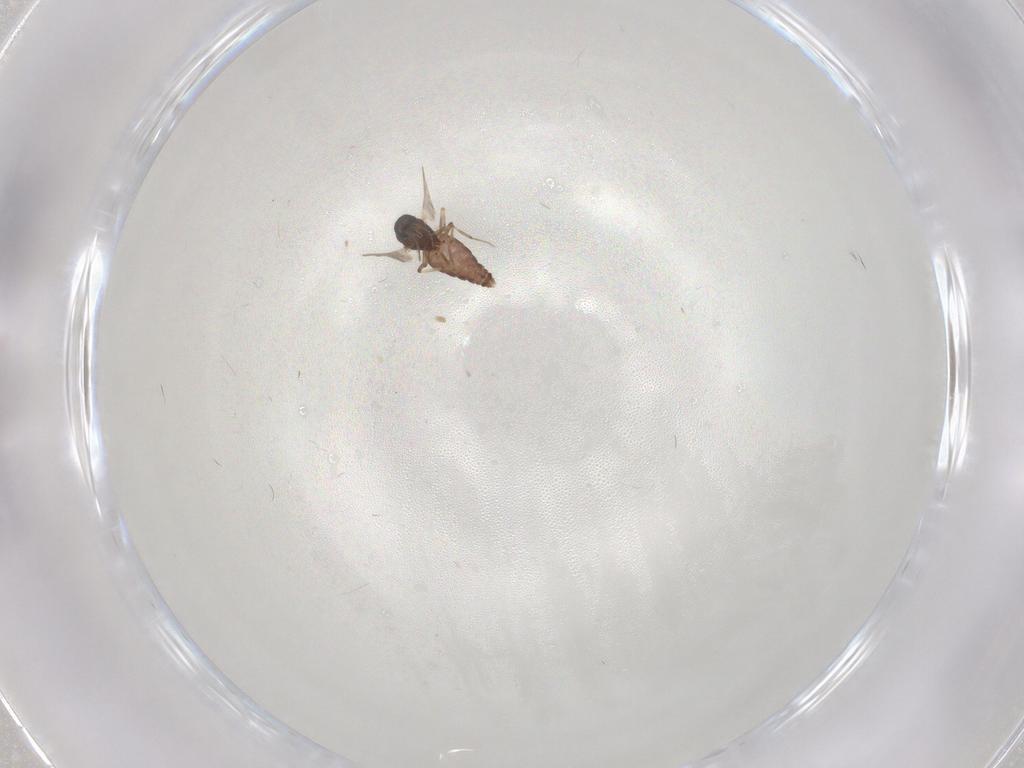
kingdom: Animalia
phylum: Arthropoda
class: Insecta
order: Diptera
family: Limoniidae
